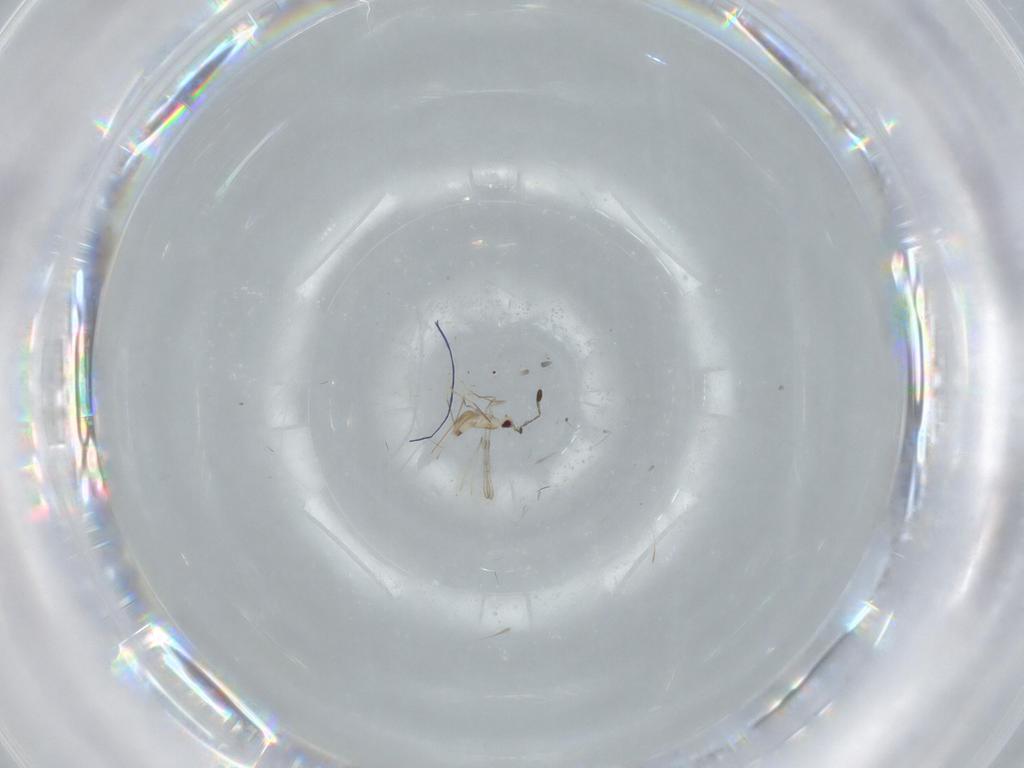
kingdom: Animalia
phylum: Arthropoda
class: Insecta
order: Hymenoptera
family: Mymaridae
